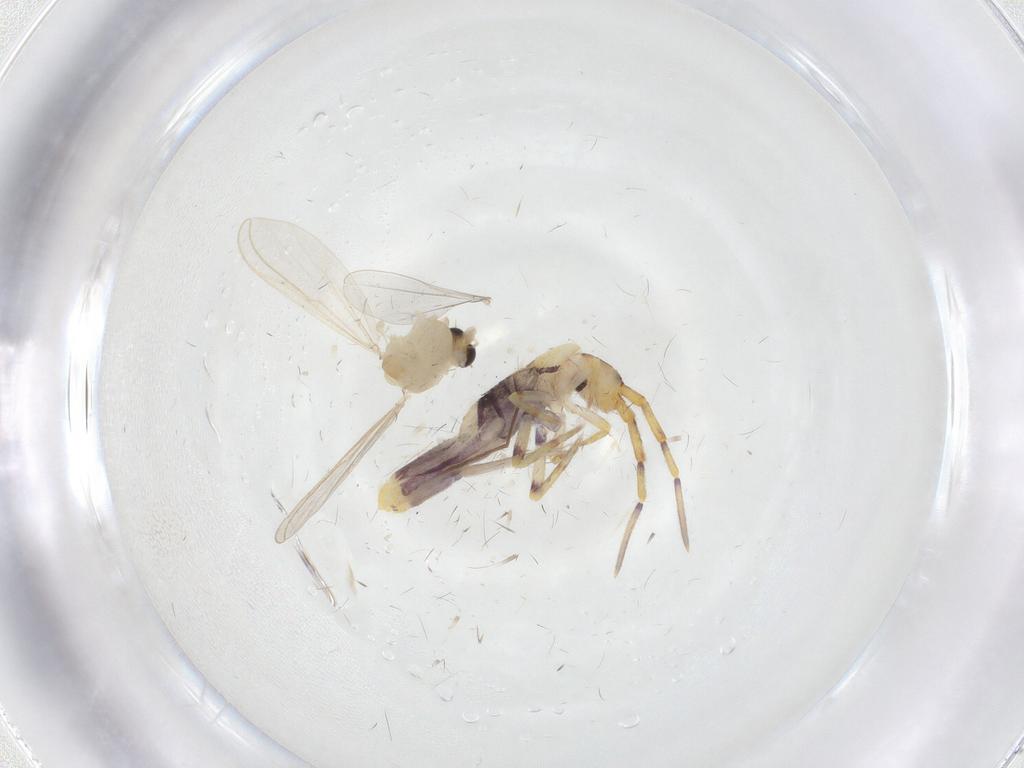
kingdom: Animalia
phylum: Arthropoda
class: Insecta
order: Diptera
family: Chironomidae
